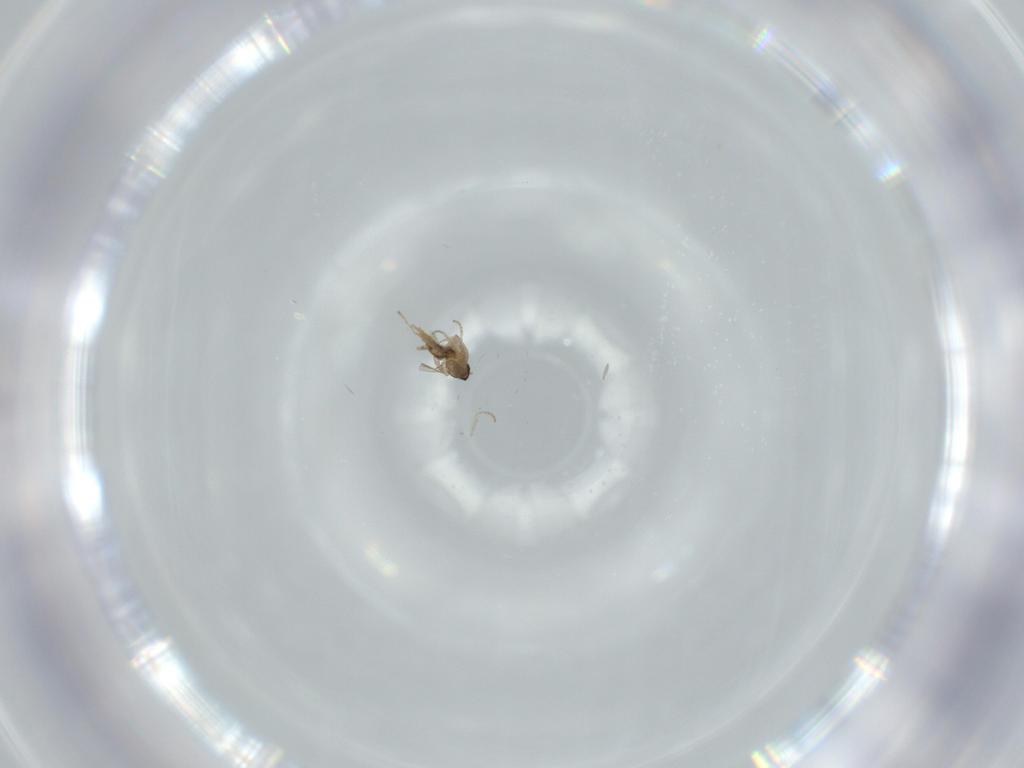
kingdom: Animalia
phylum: Arthropoda
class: Insecta
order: Diptera
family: Cecidomyiidae
